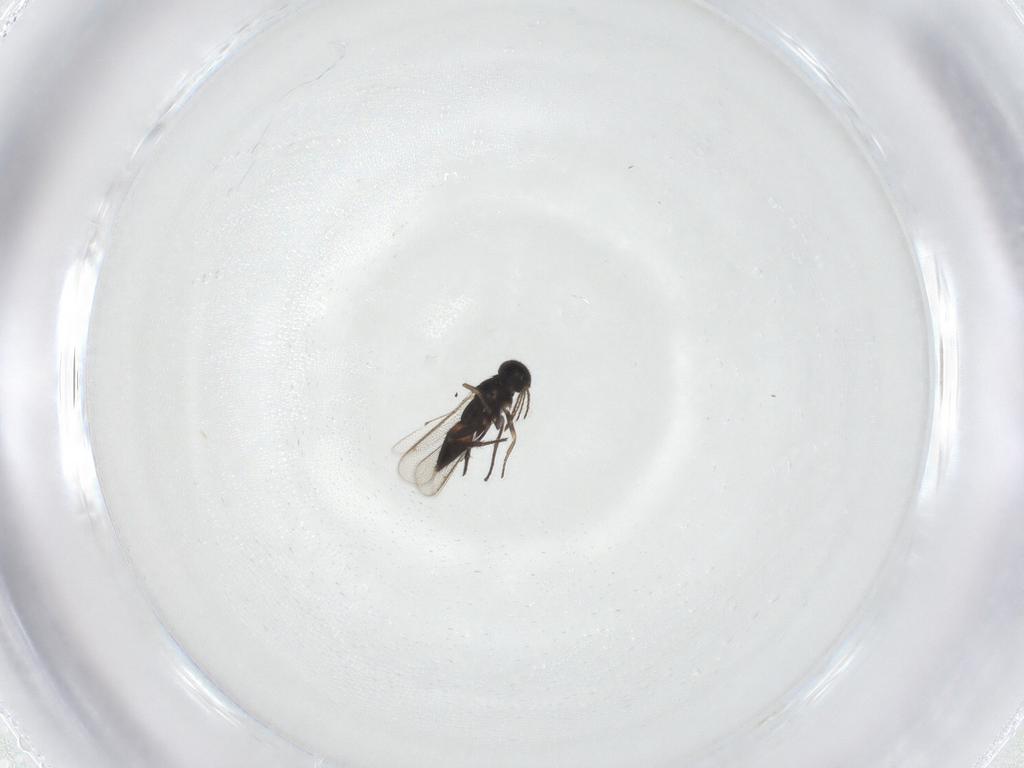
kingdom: Animalia
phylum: Arthropoda
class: Insecta
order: Hymenoptera
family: Eulophidae
